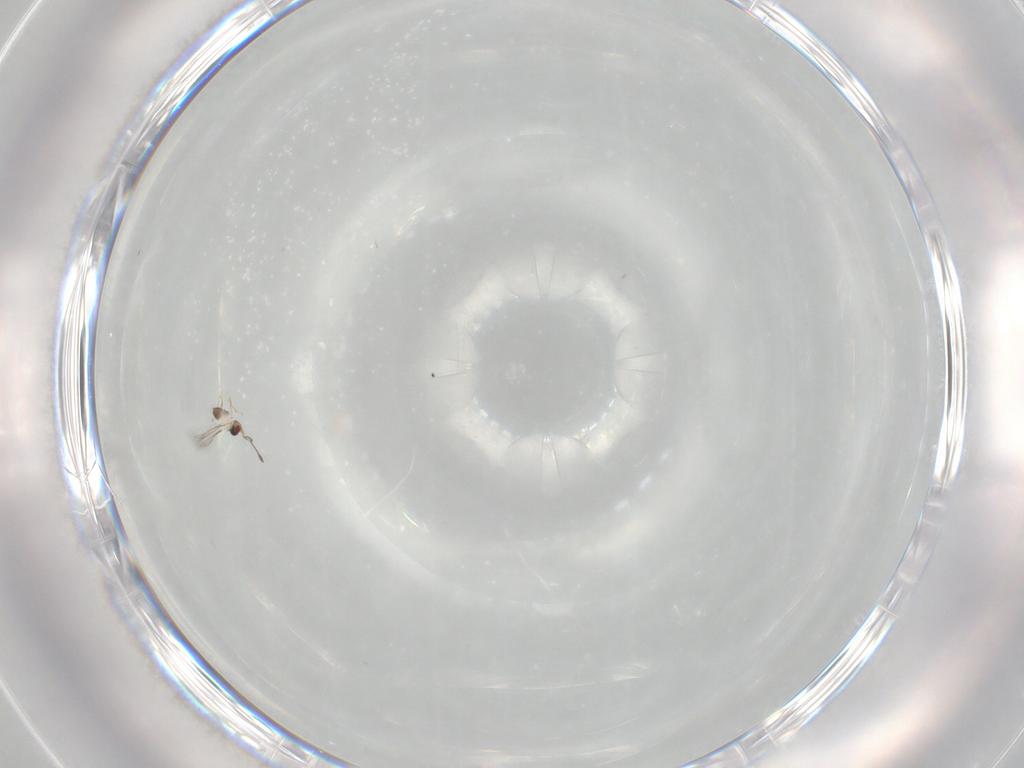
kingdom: Animalia
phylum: Arthropoda
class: Insecta
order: Hymenoptera
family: Mymaridae
